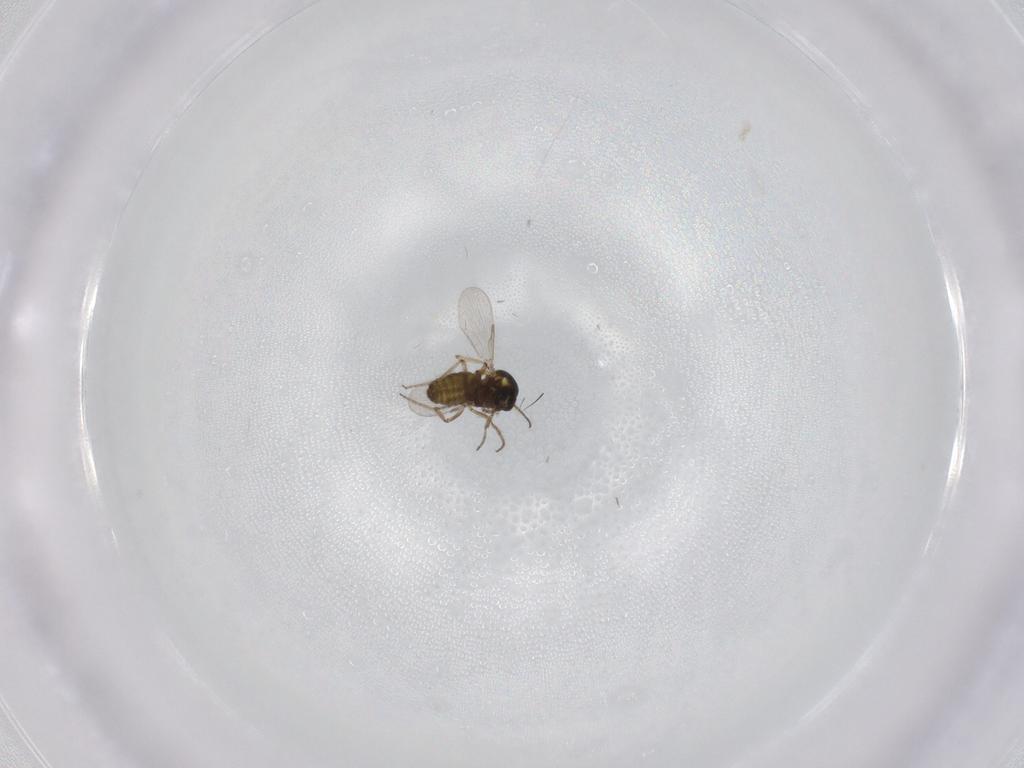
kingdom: Animalia
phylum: Arthropoda
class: Insecta
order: Diptera
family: Ceratopogonidae
